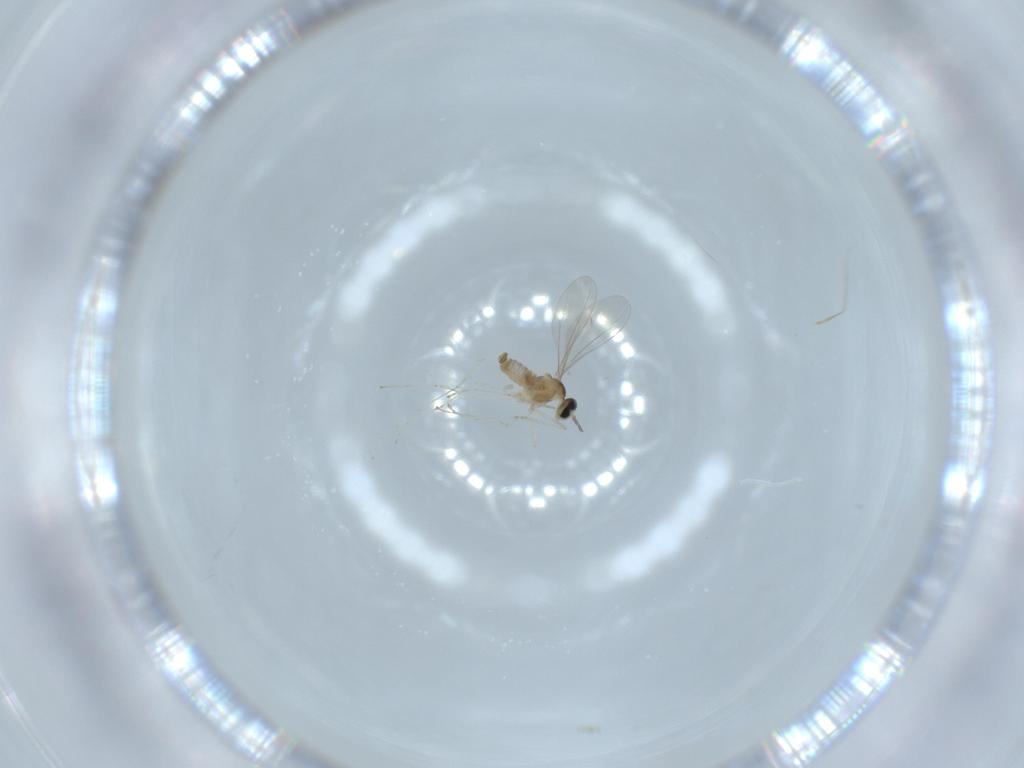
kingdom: Animalia
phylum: Arthropoda
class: Insecta
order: Diptera
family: Cecidomyiidae
